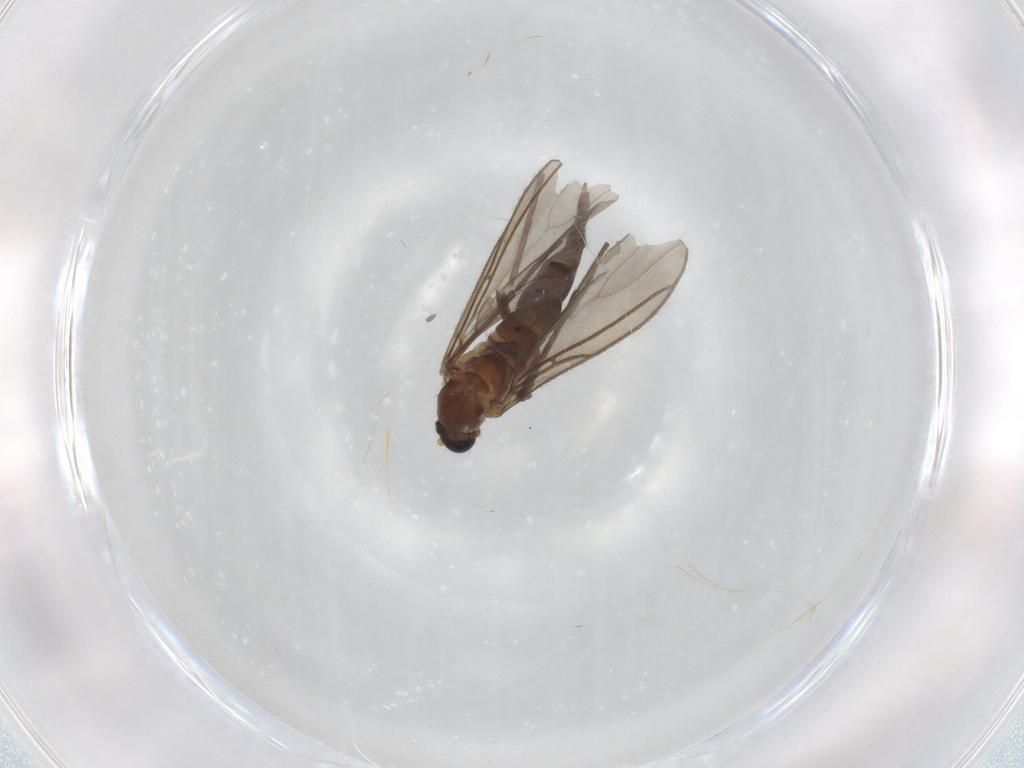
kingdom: Animalia
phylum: Arthropoda
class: Insecta
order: Diptera
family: Sciaridae
